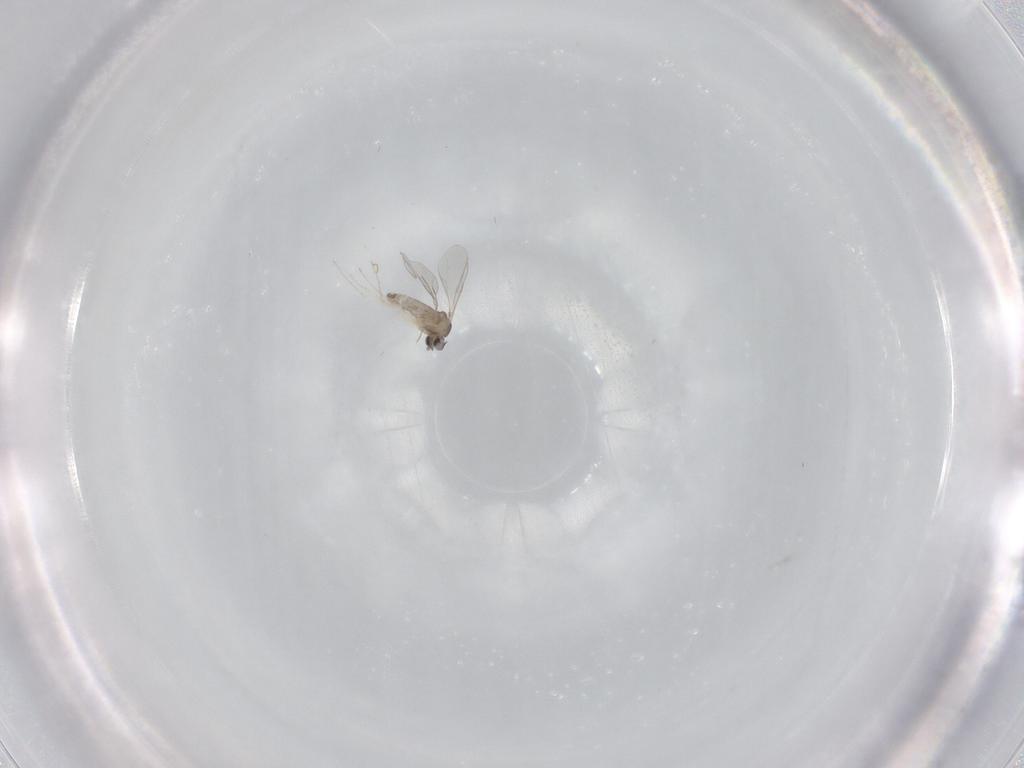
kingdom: Animalia
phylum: Arthropoda
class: Insecta
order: Diptera
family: Cecidomyiidae
